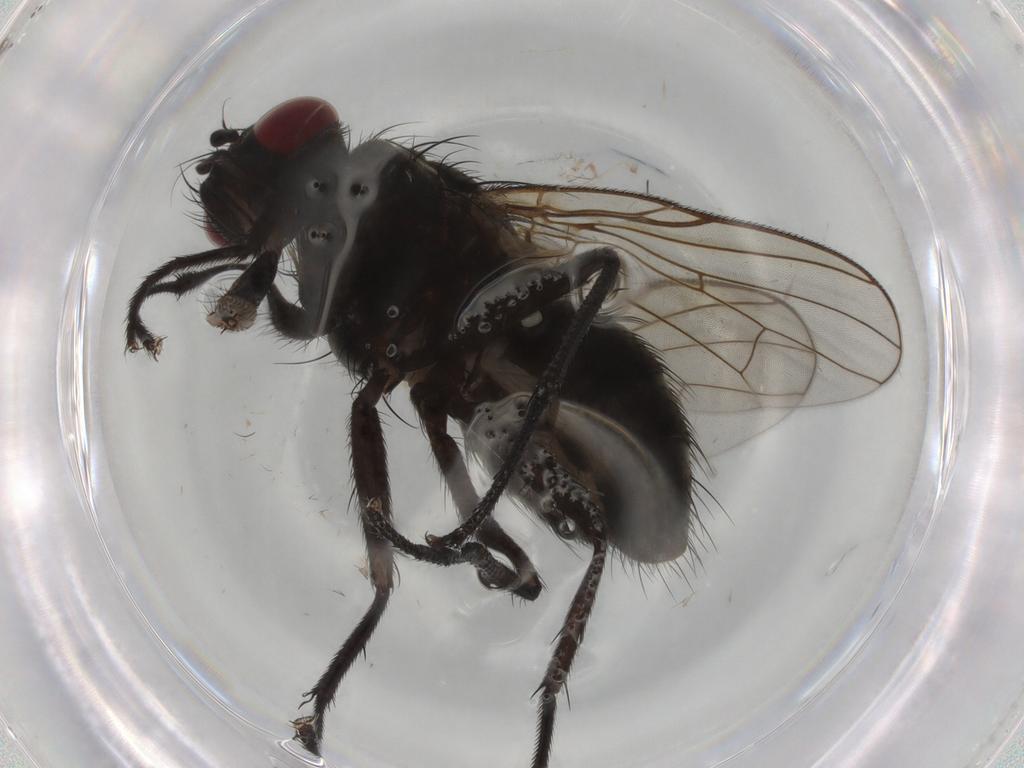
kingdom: Animalia
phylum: Arthropoda
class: Insecta
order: Diptera
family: Muscidae
